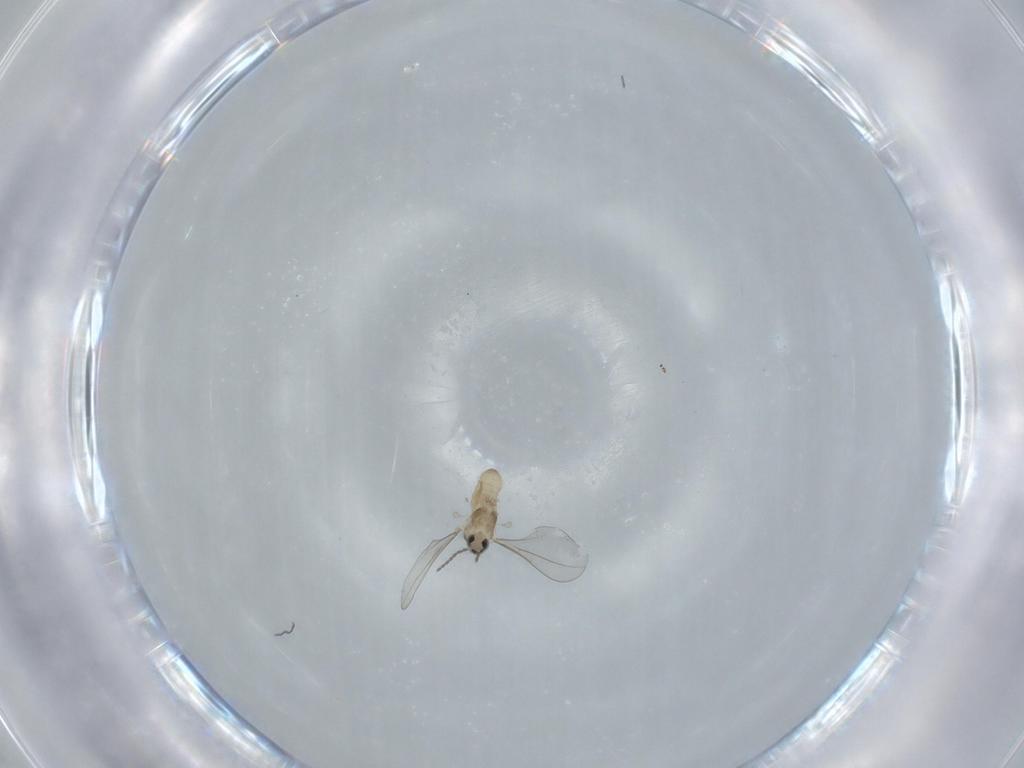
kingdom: Animalia
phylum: Arthropoda
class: Insecta
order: Diptera
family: Cecidomyiidae
